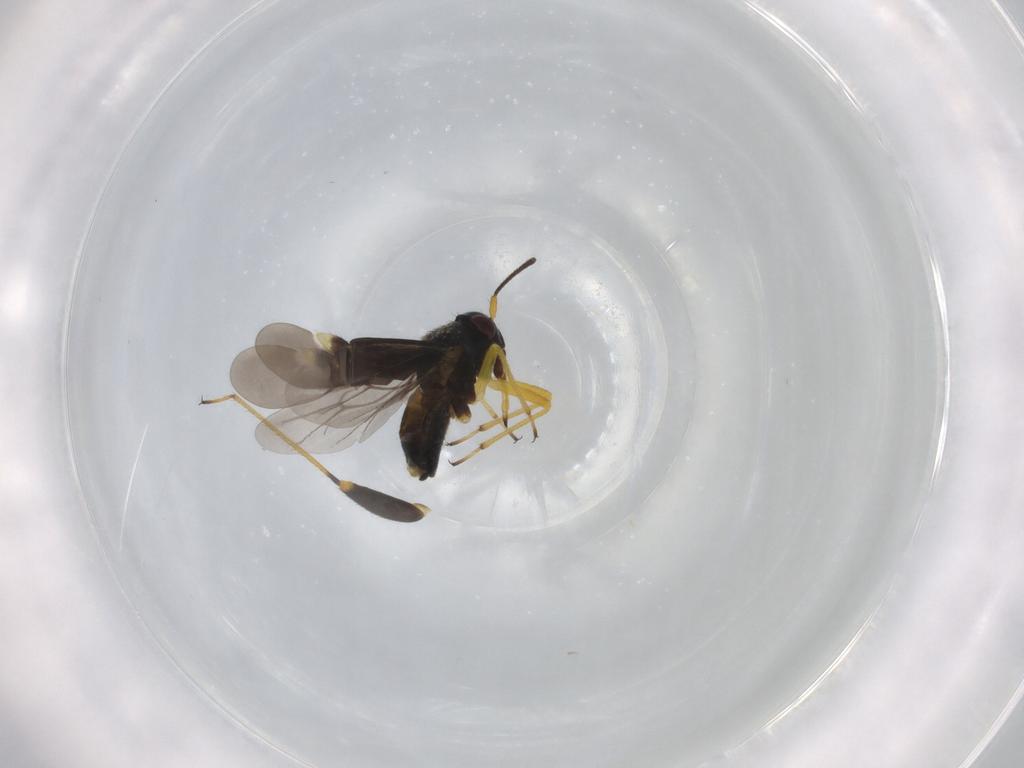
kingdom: Animalia
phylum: Arthropoda
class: Insecta
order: Hemiptera
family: Miridae
